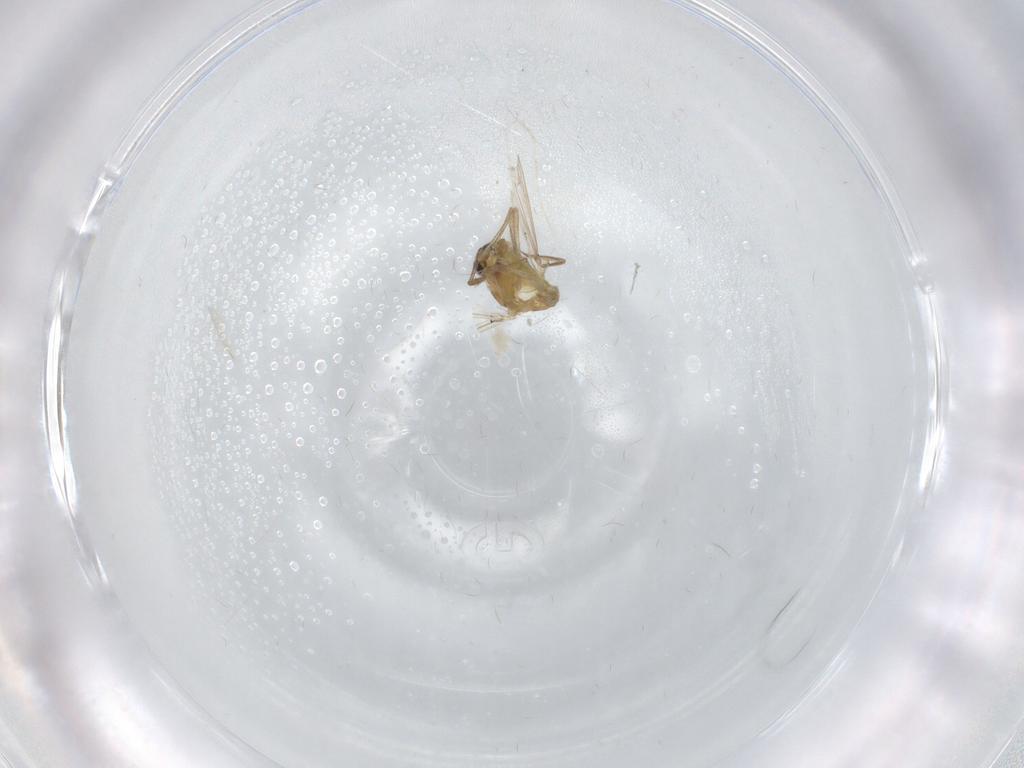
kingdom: Animalia
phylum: Arthropoda
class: Insecta
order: Diptera
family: Chironomidae
